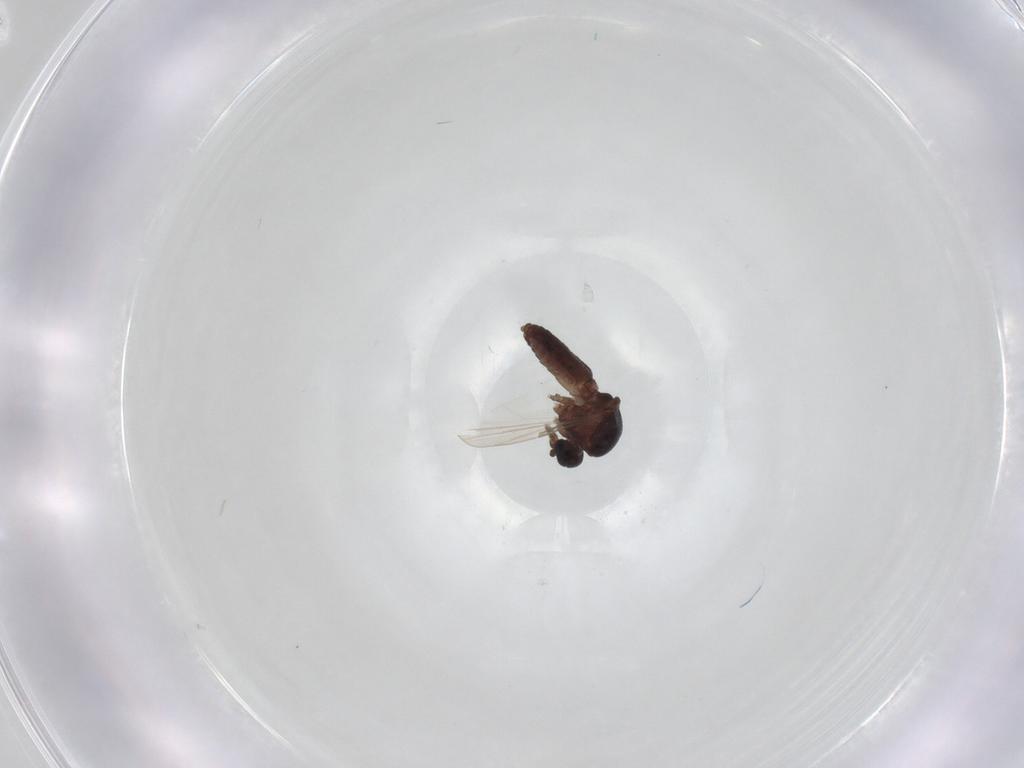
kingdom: Animalia
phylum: Arthropoda
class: Insecta
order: Diptera
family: Ceratopogonidae
